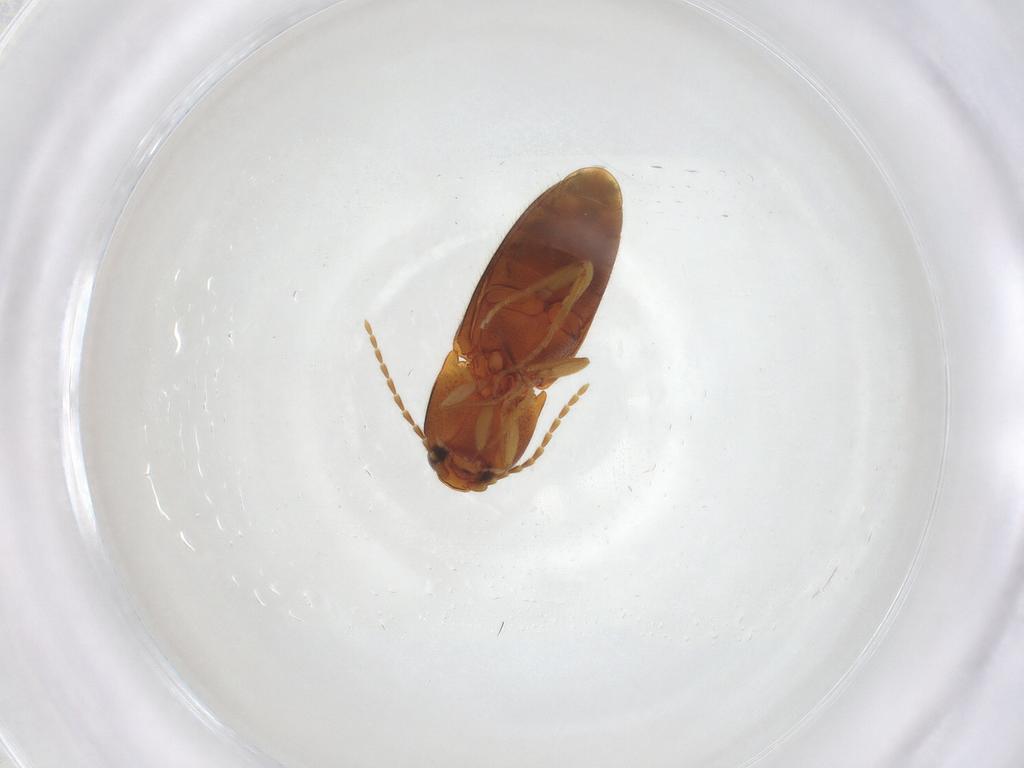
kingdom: Animalia
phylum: Arthropoda
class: Insecta
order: Coleoptera
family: Elateridae
